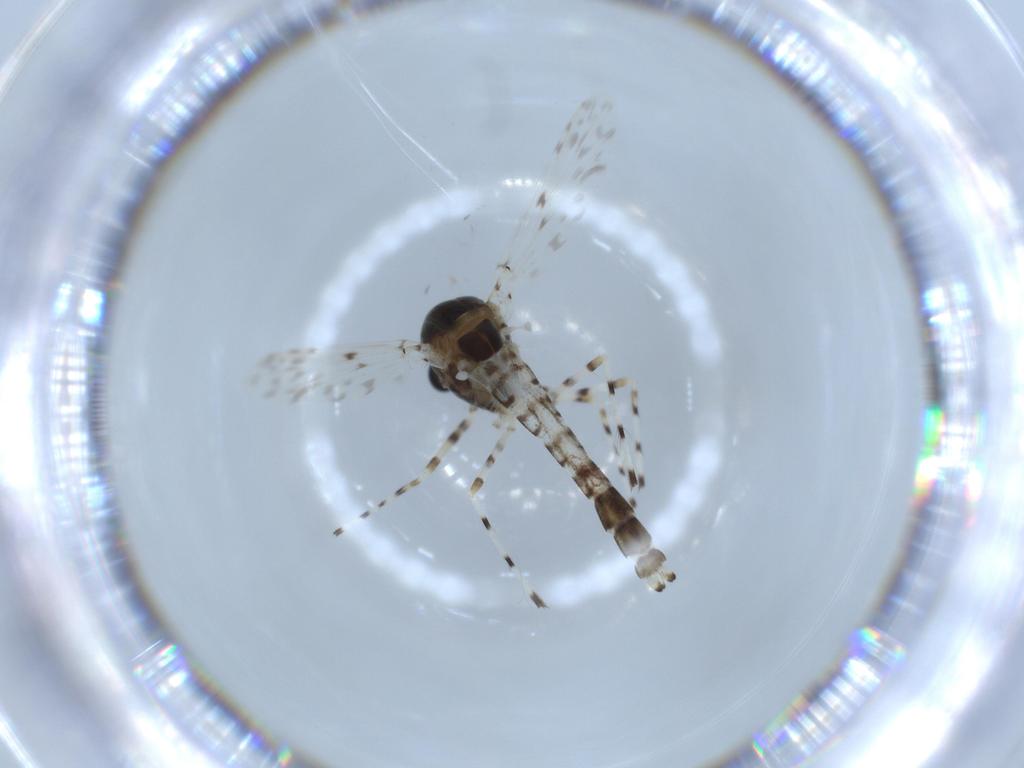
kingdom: Animalia
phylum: Arthropoda
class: Insecta
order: Diptera
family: Chironomidae
